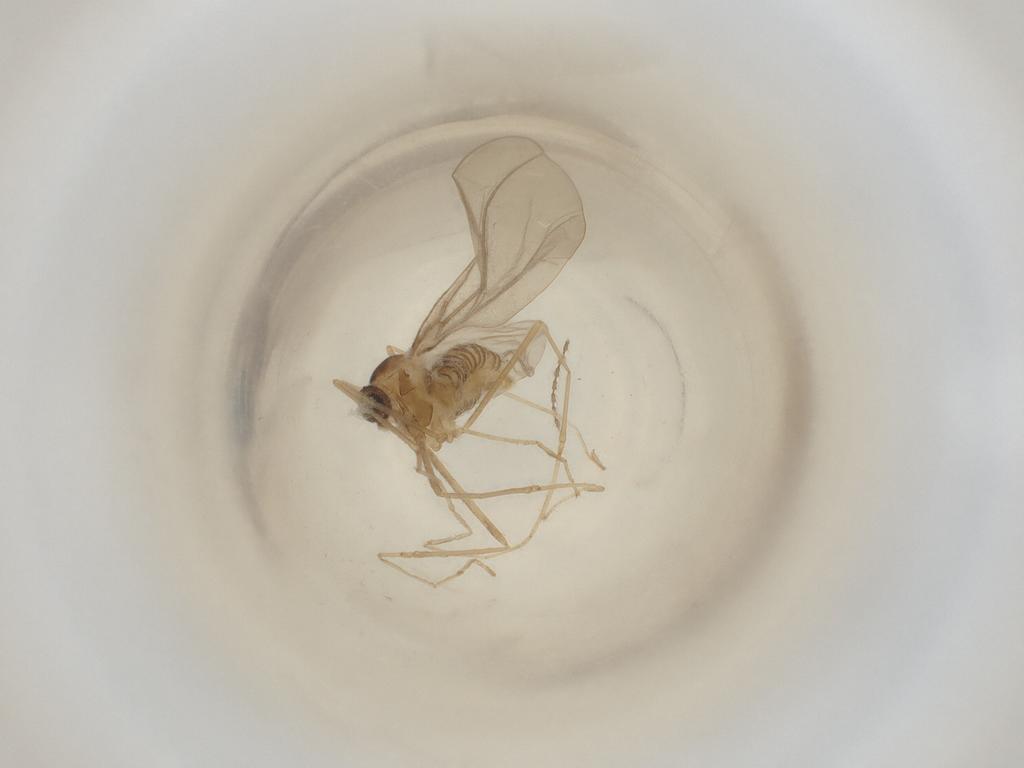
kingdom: Animalia
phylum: Arthropoda
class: Insecta
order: Diptera
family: Cecidomyiidae
